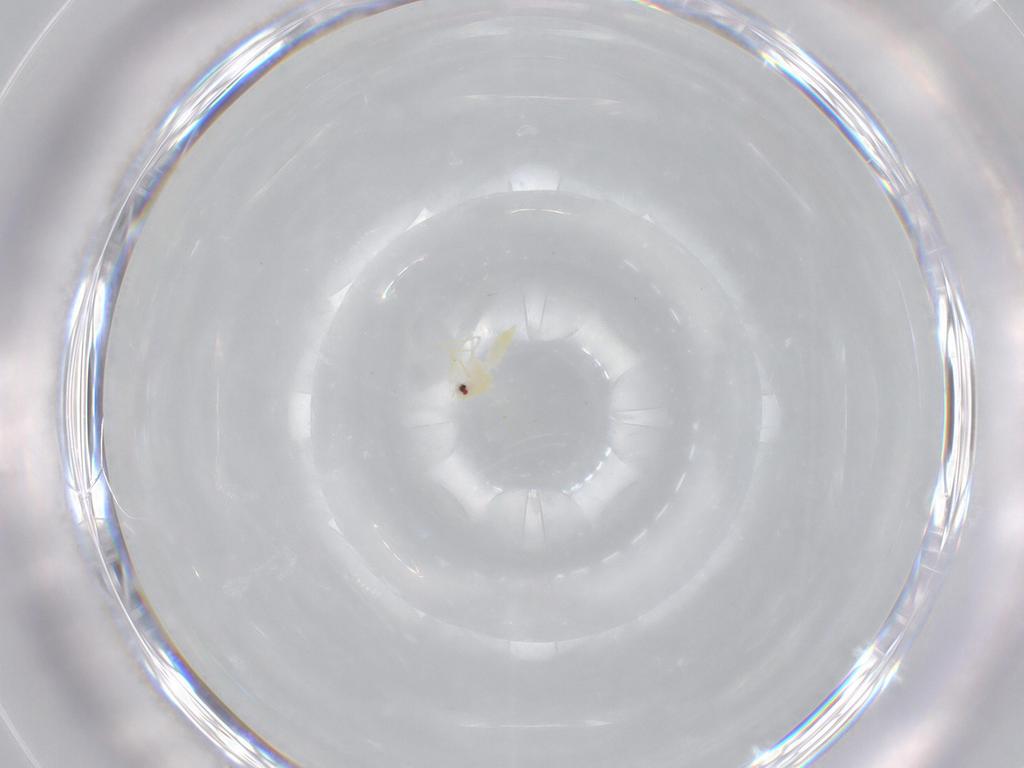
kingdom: Animalia
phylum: Arthropoda
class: Insecta
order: Hemiptera
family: Aleyrodidae
